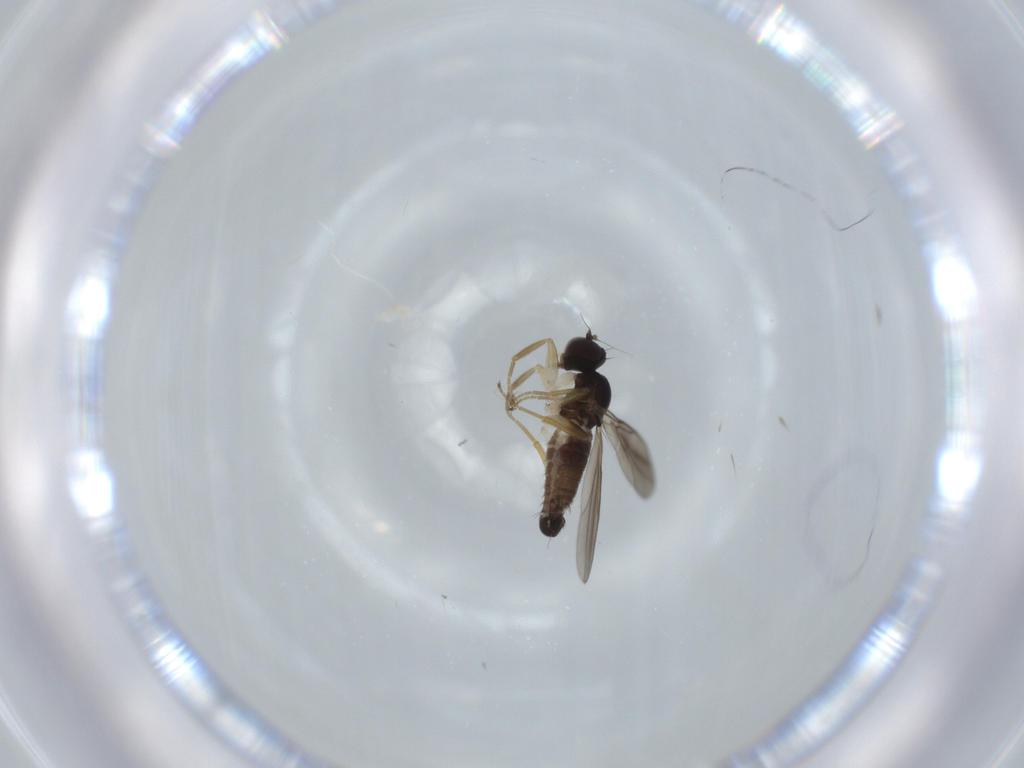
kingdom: Animalia
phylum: Arthropoda
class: Insecta
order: Diptera
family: Hybotidae
